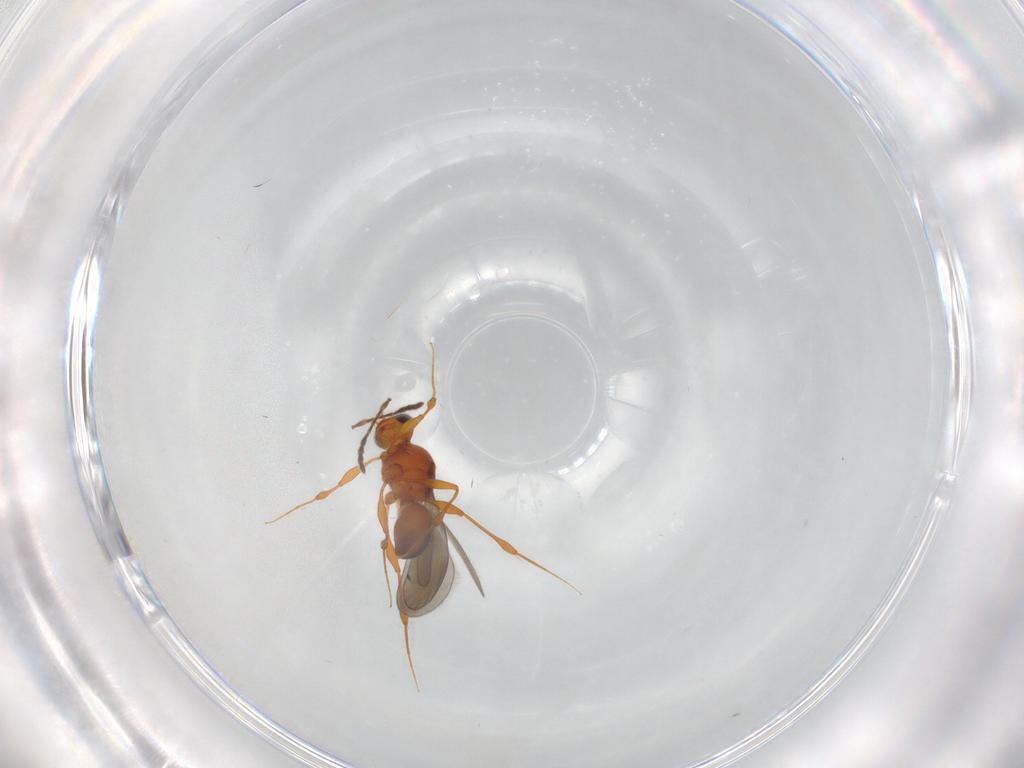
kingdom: Animalia
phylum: Arthropoda
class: Insecta
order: Hymenoptera
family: Platygastridae
